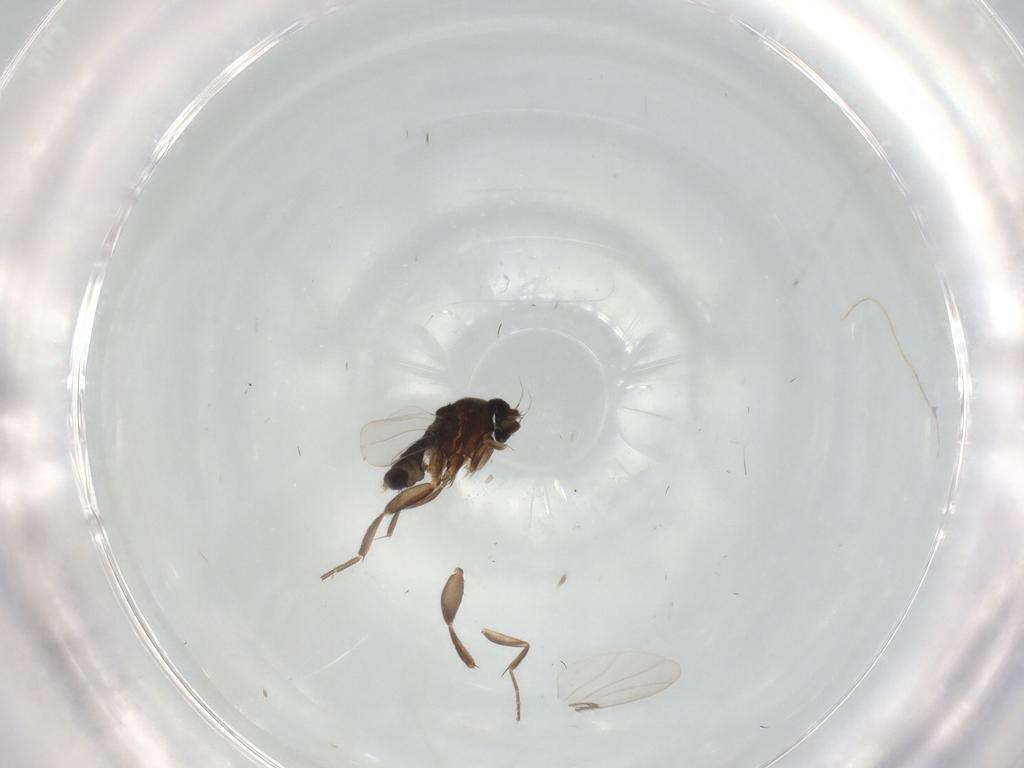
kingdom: Animalia
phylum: Arthropoda
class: Insecta
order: Diptera
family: Phoridae
